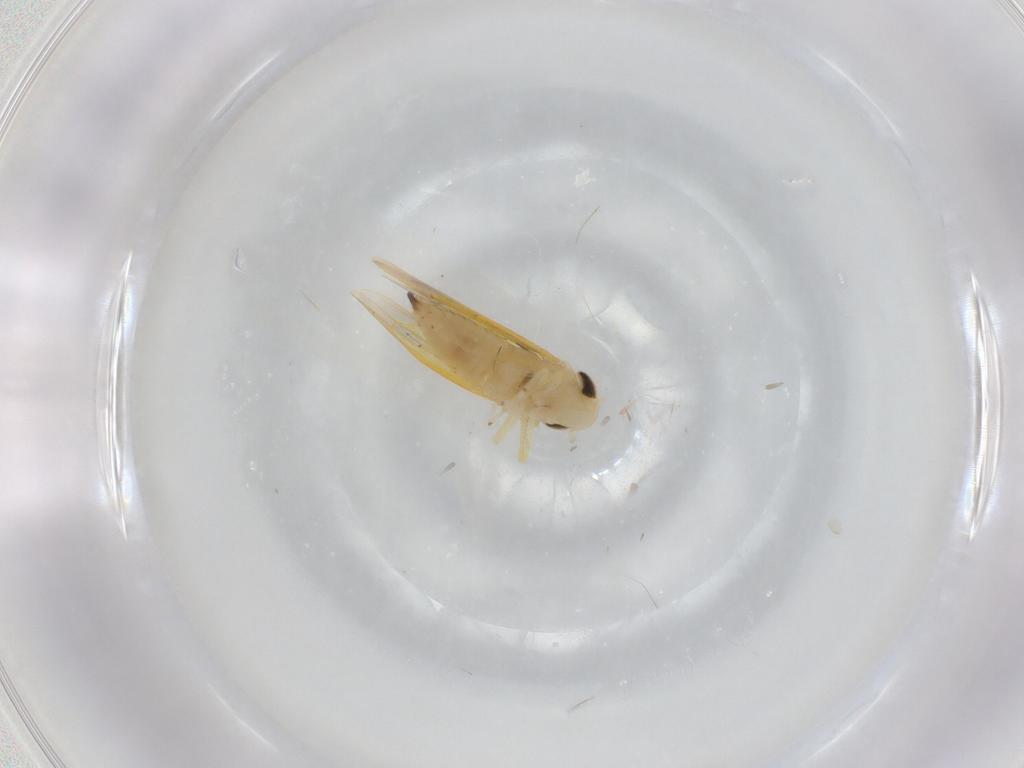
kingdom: Animalia
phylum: Arthropoda
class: Insecta
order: Hemiptera
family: Cicadellidae
